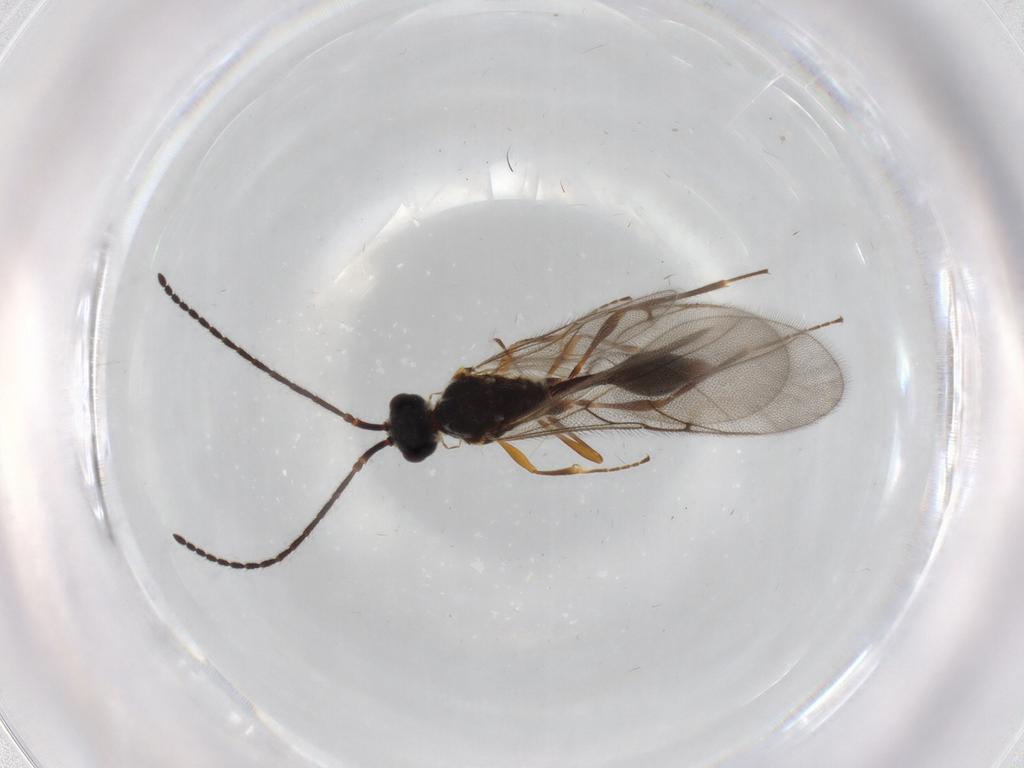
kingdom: Animalia
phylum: Arthropoda
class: Insecta
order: Hymenoptera
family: Diapriidae
